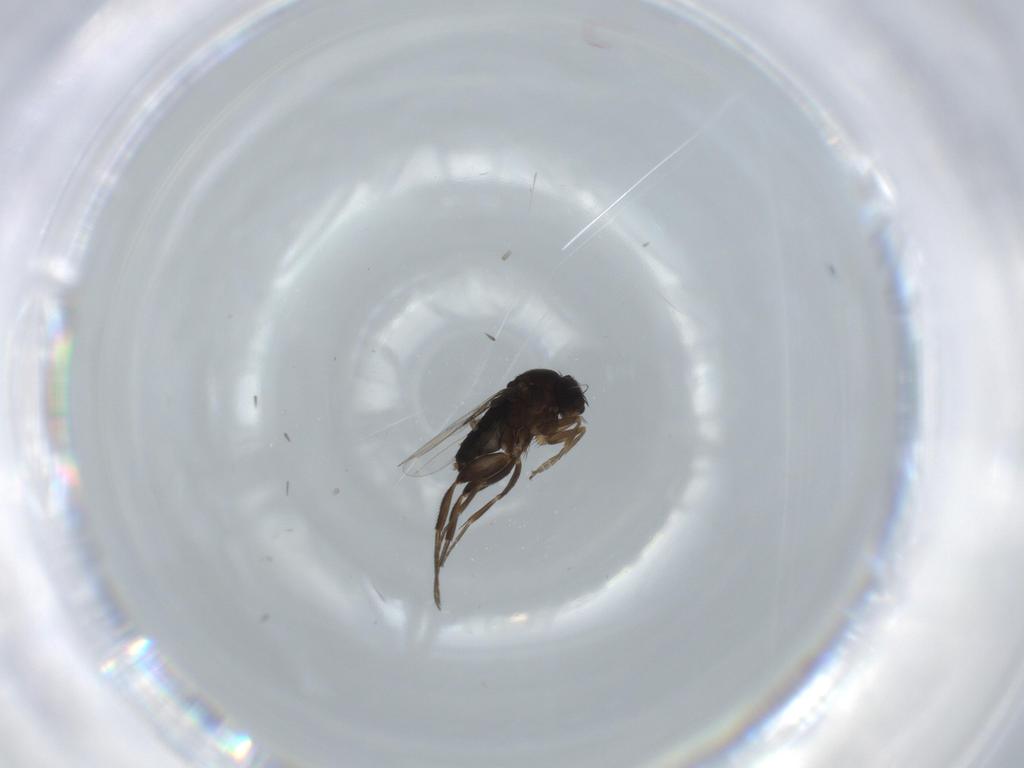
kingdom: Animalia
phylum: Arthropoda
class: Insecta
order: Diptera
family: Phoridae
